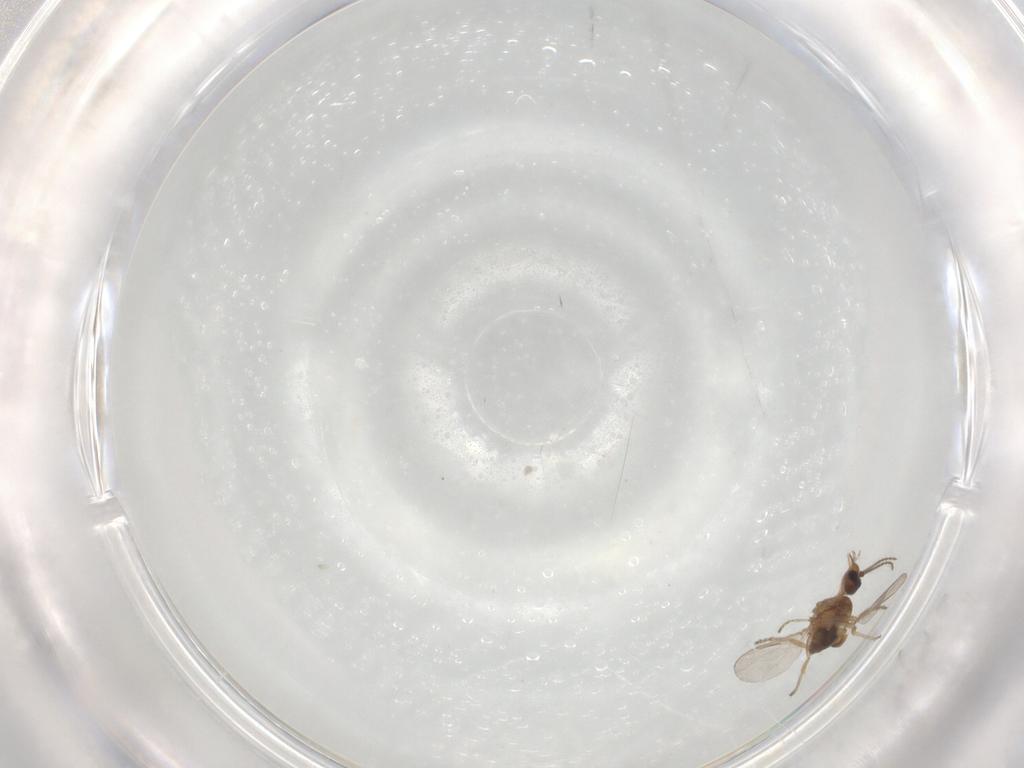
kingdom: Animalia
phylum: Arthropoda
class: Insecta
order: Diptera
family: Ceratopogonidae
